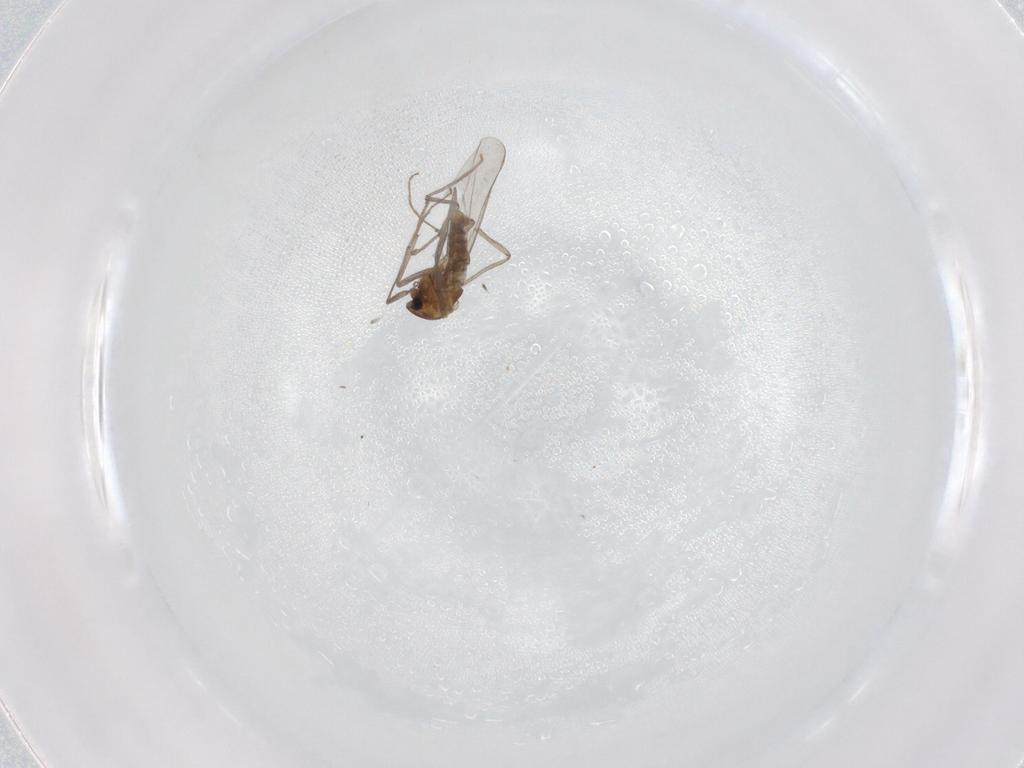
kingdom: Animalia
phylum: Arthropoda
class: Insecta
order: Diptera
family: Chironomidae
